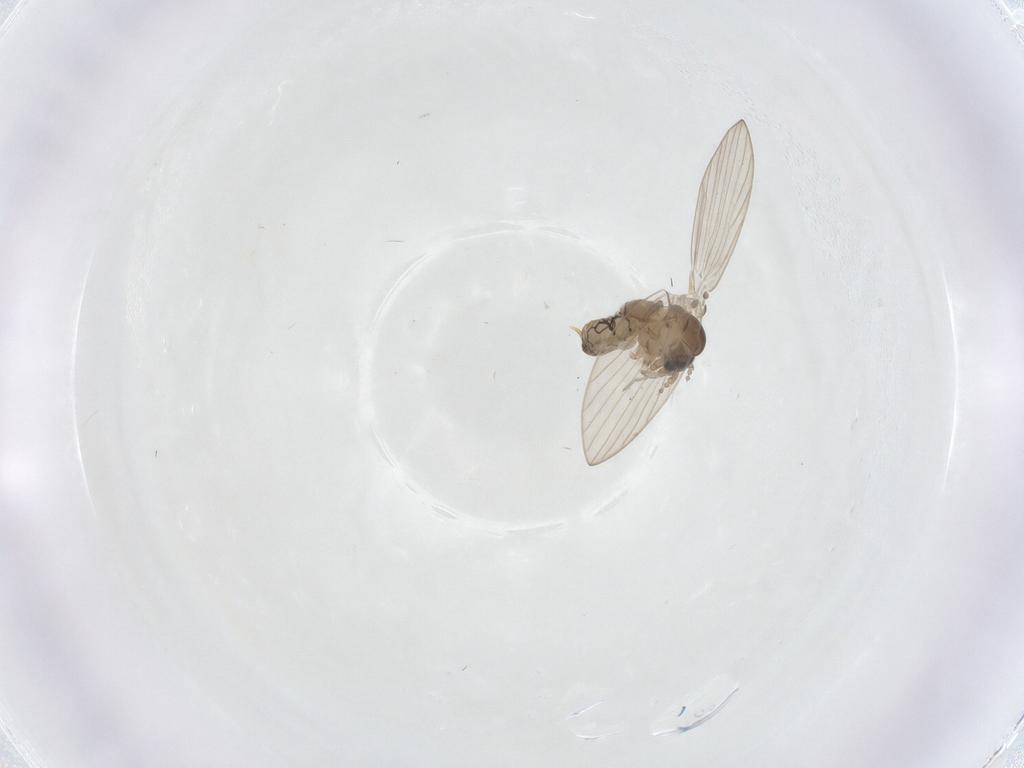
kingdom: Animalia
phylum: Arthropoda
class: Insecta
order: Diptera
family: Psychodidae
